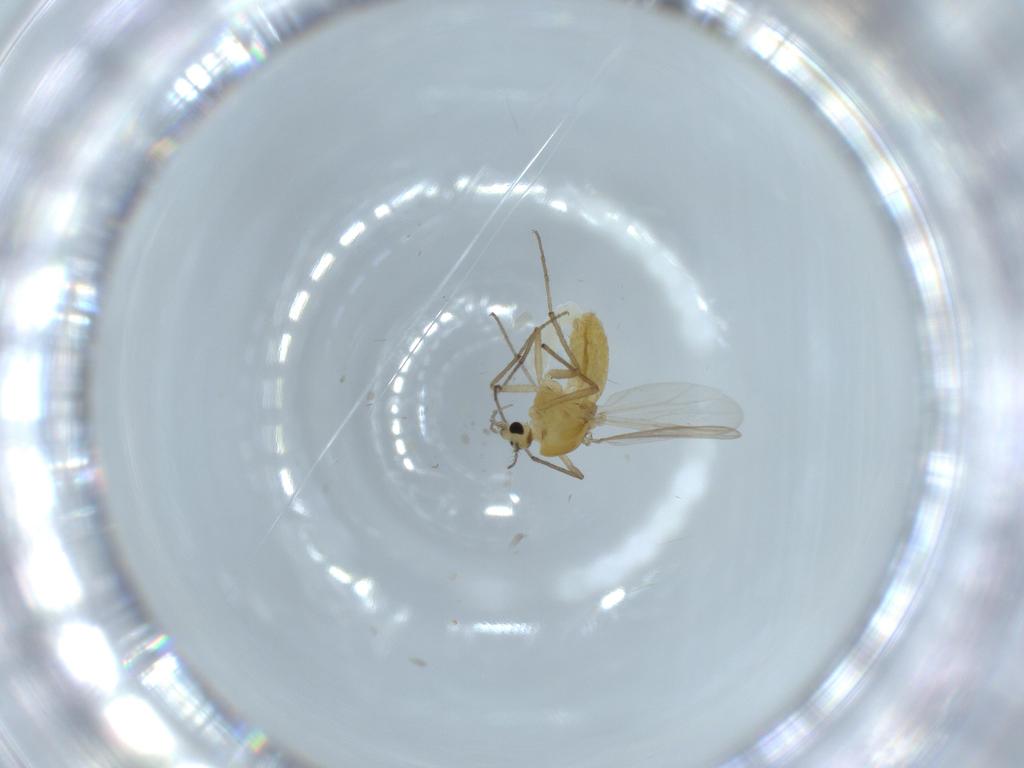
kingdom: Animalia
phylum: Arthropoda
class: Insecta
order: Diptera
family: Chironomidae
